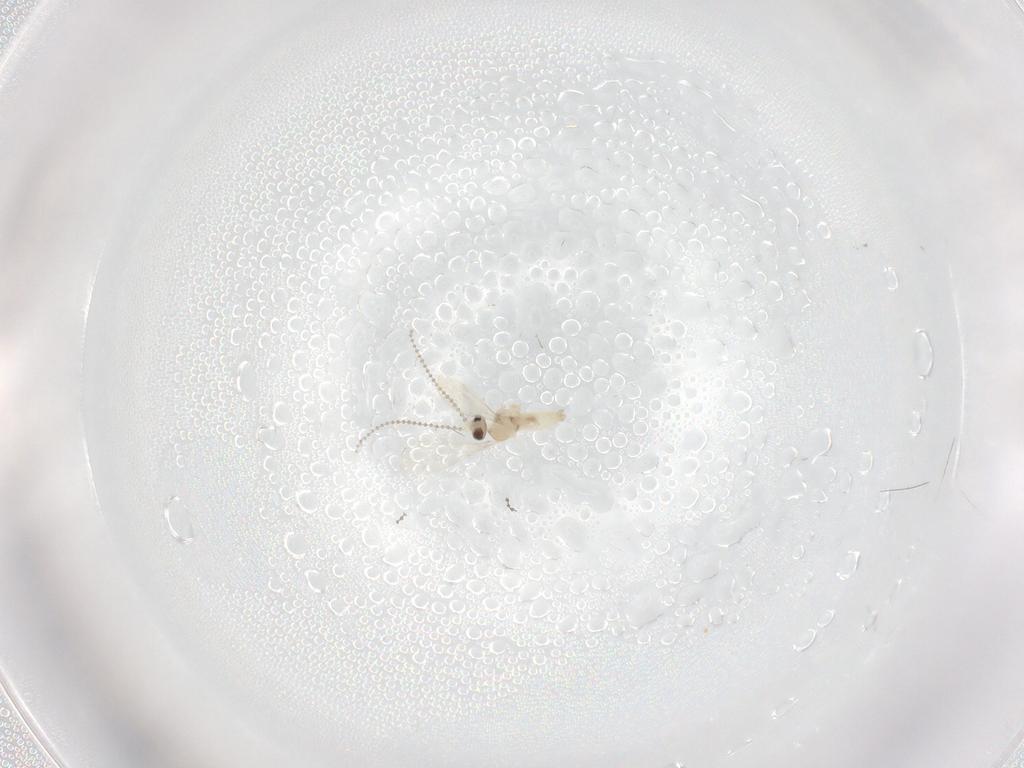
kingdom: Animalia
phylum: Arthropoda
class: Insecta
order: Diptera
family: Cecidomyiidae
